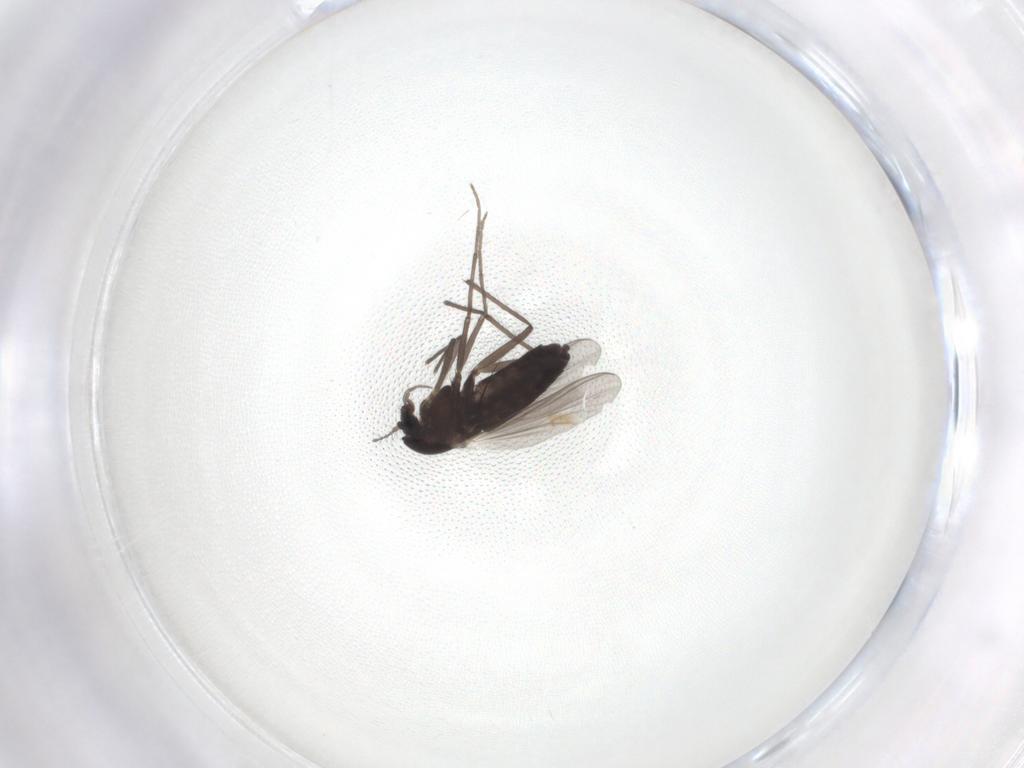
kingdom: Animalia
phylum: Arthropoda
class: Insecta
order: Diptera
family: Chironomidae
